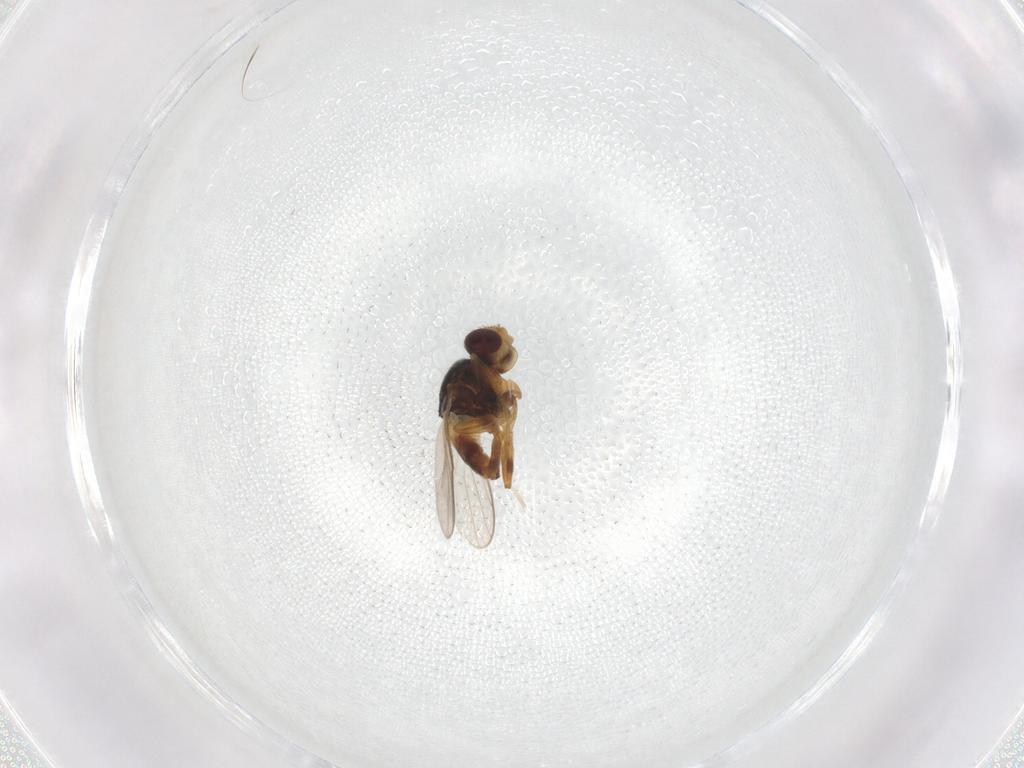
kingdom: Animalia
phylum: Arthropoda
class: Insecta
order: Diptera
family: Chloropidae
